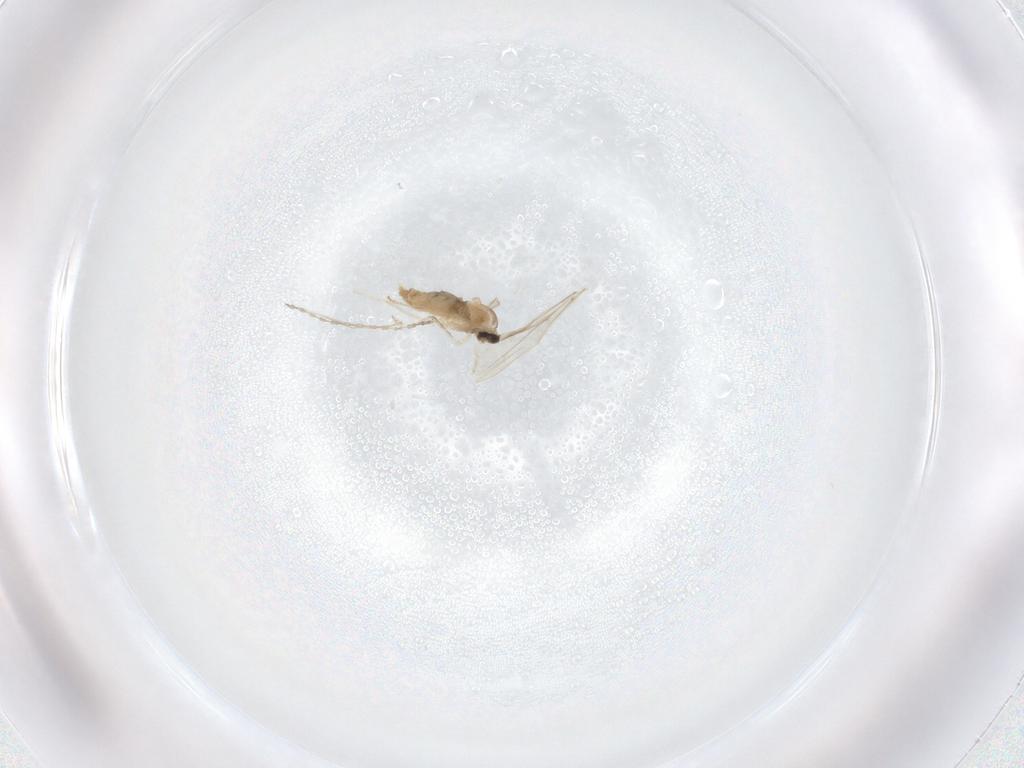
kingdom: Animalia
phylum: Arthropoda
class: Insecta
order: Diptera
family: Cecidomyiidae
